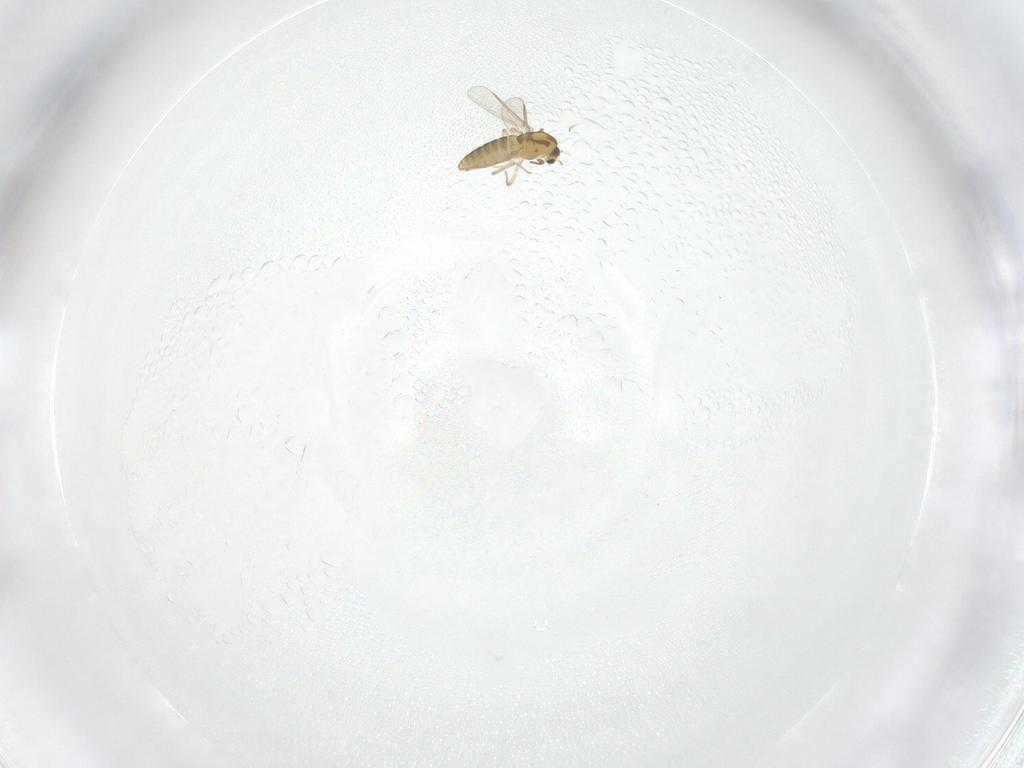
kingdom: Animalia
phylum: Arthropoda
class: Insecta
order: Diptera
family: Chironomidae
